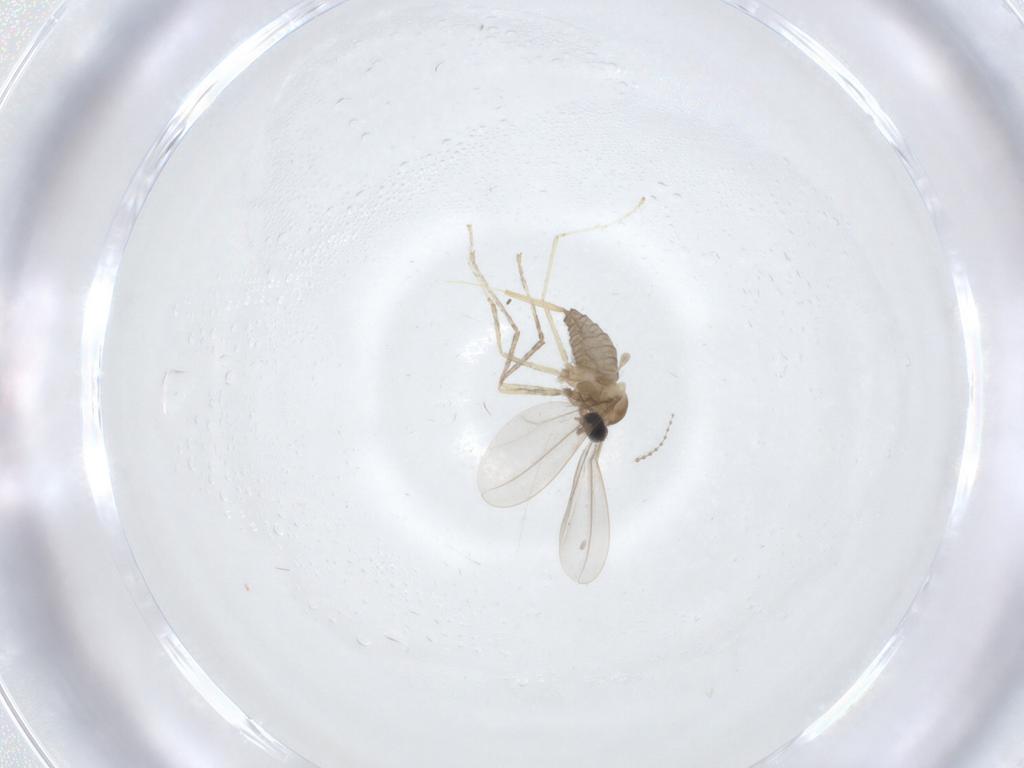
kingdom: Animalia
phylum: Arthropoda
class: Insecta
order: Diptera
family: Cecidomyiidae
